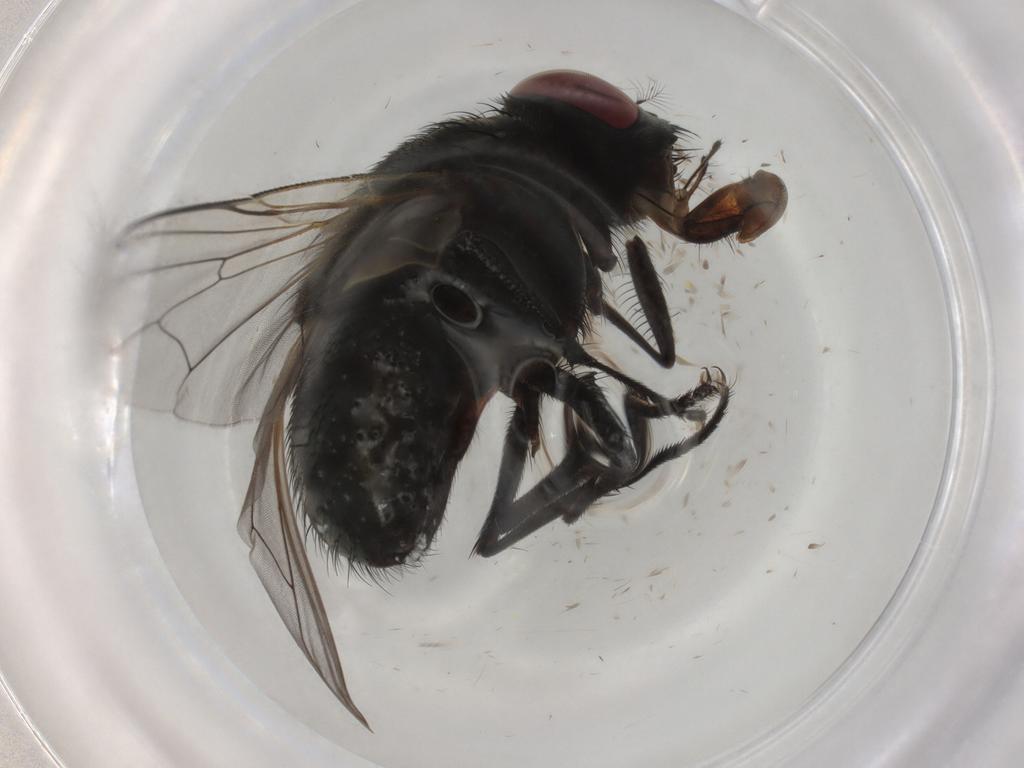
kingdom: Animalia
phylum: Arthropoda
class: Insecta
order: Diptera
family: Muscidae
